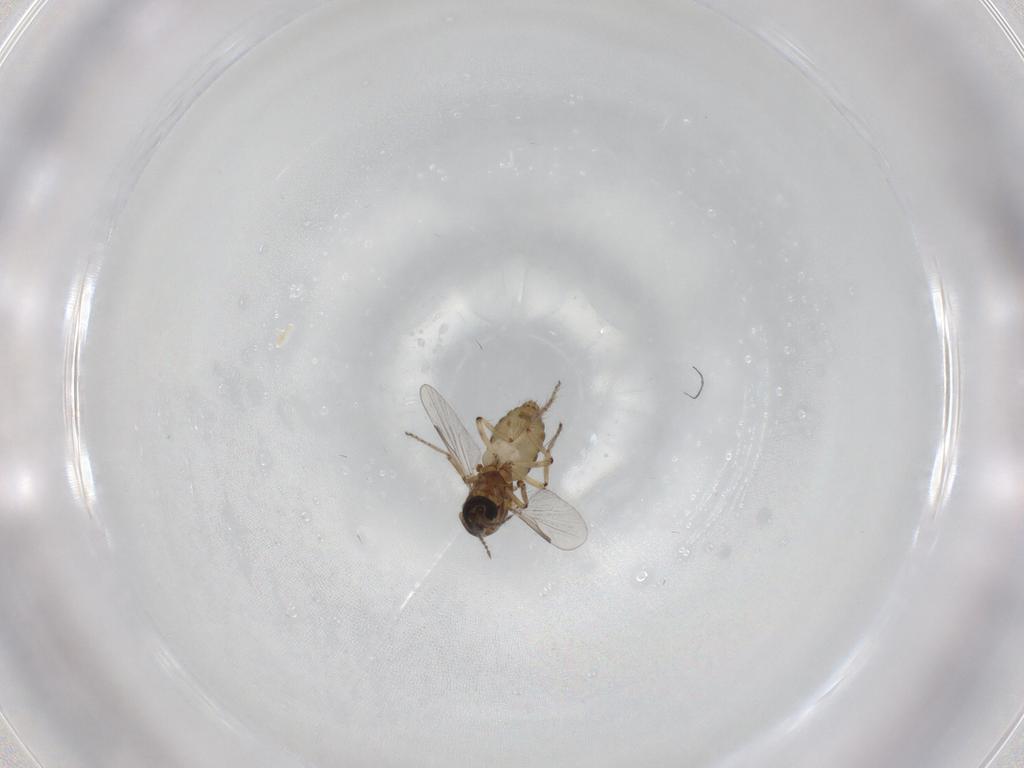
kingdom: Animalia
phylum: Arthropoda
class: Insecta
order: Diptera
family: Ceratopogonidae
